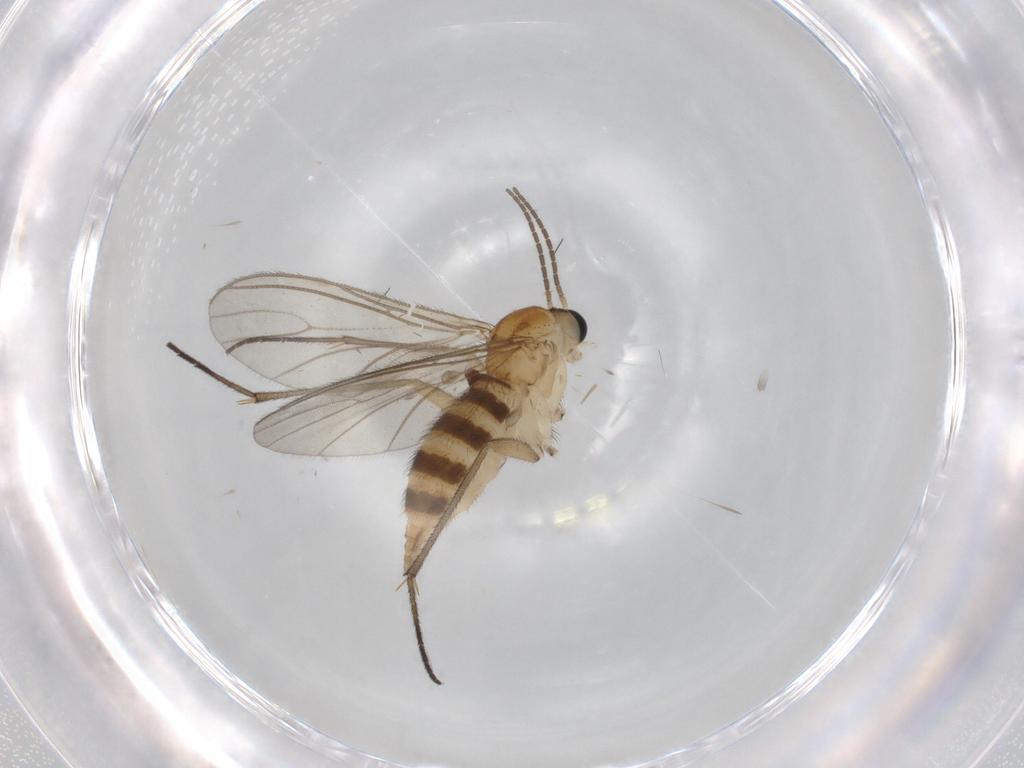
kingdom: Animalia
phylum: Arthropoda
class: Insecta
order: Diptera
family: Sciaridae
